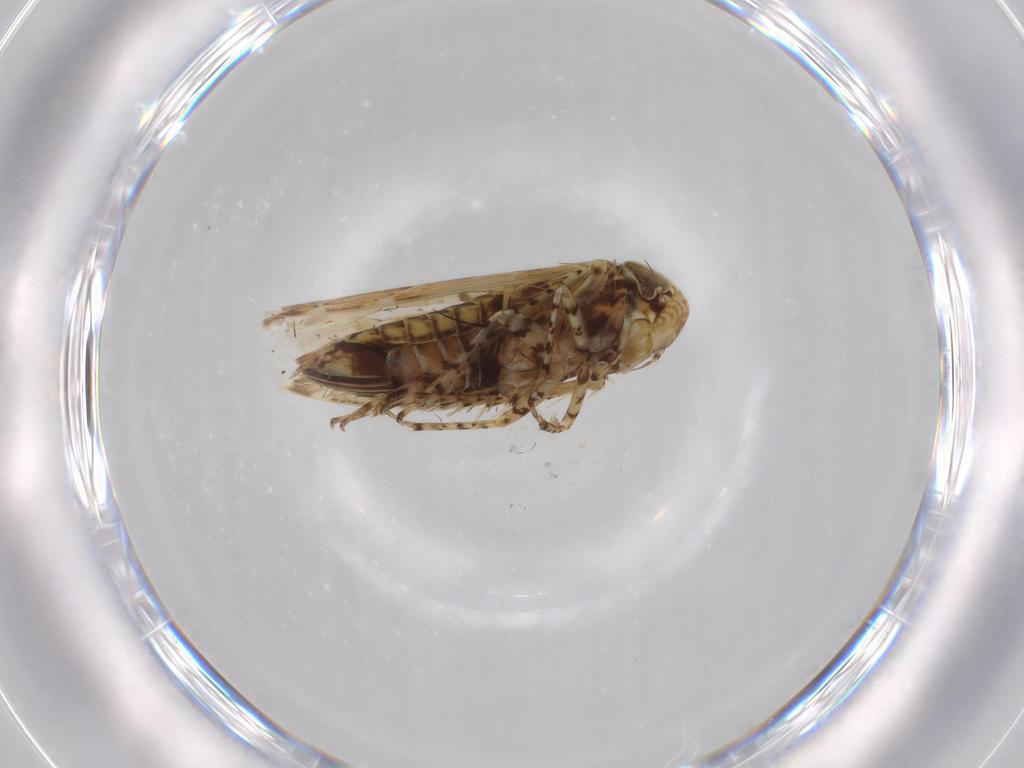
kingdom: Animalia
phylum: Arthropoda
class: Insecta
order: Hemiptera
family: Cicadellidae
